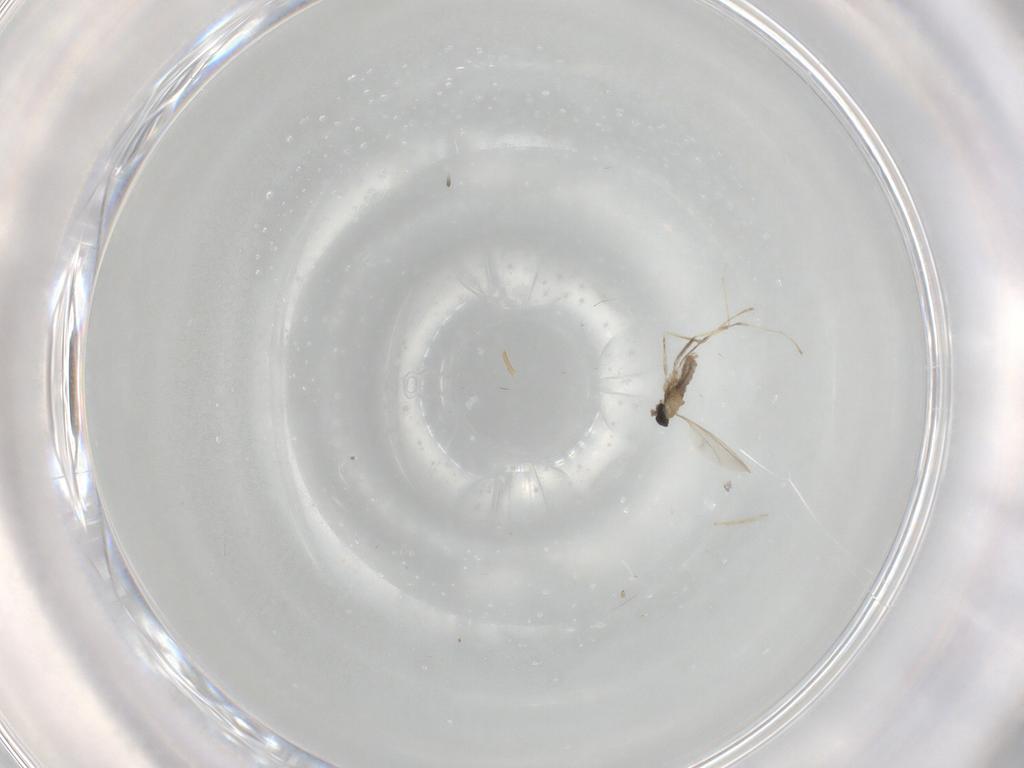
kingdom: Animalia
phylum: Arthropoda
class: Insecta
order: Diptera
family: Cecidomyiidae
